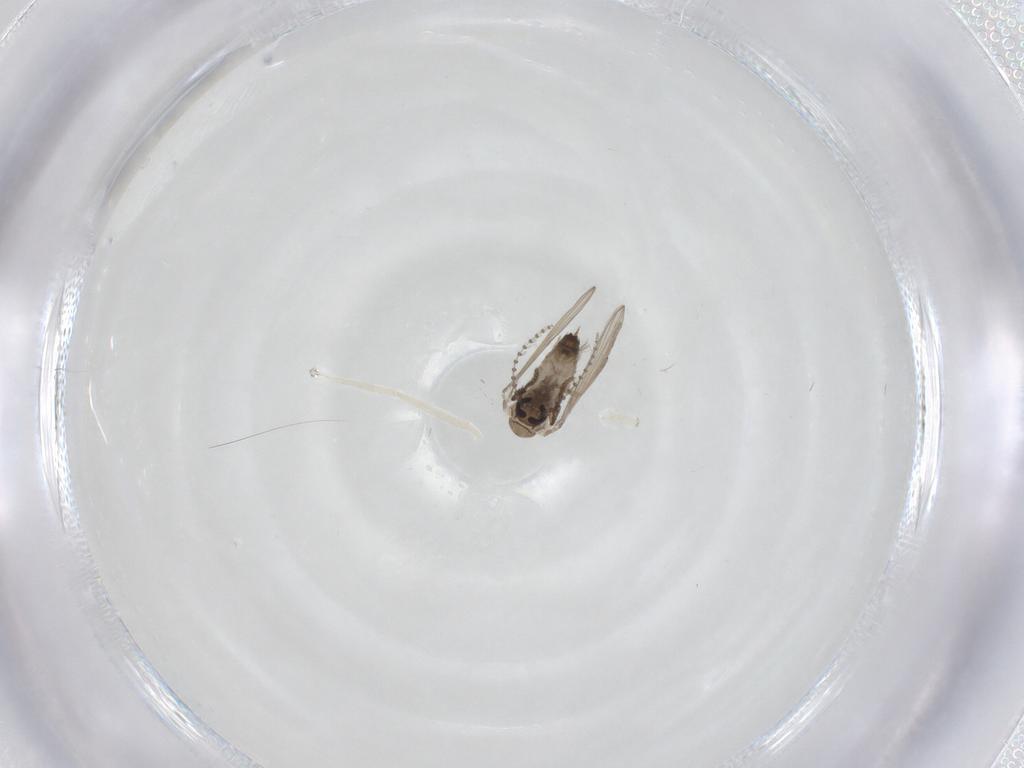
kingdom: Animalia
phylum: Arthropoda
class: Insecta
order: Diptera
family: Psychodidae
